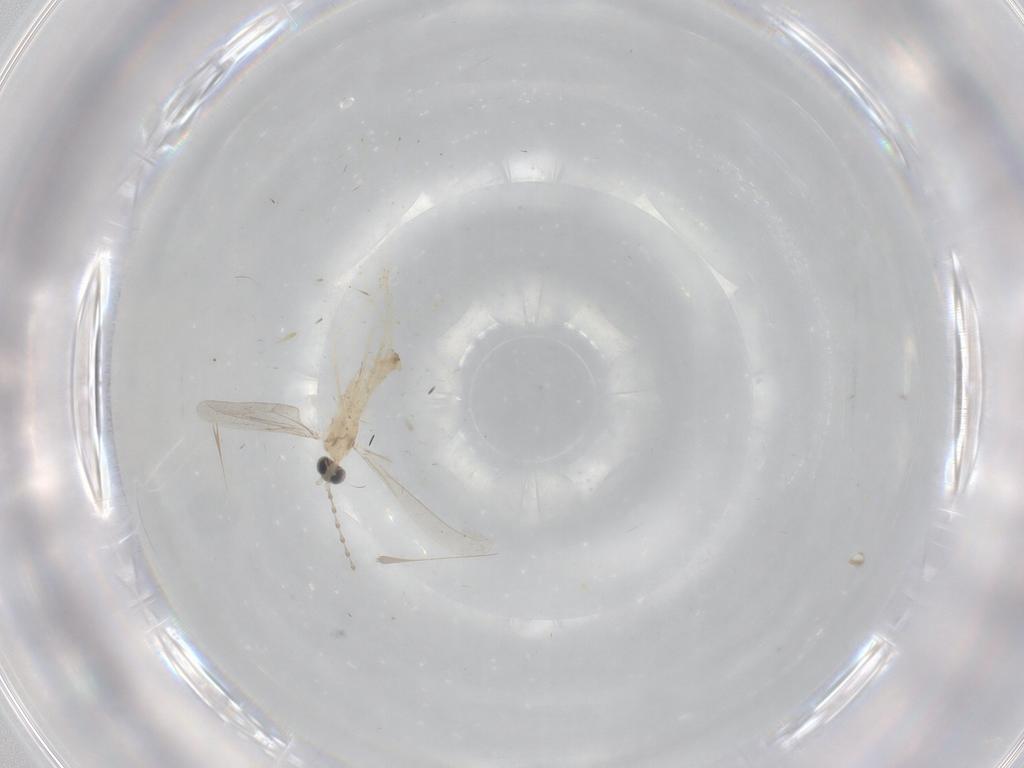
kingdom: Animalia
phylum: Arthropoda
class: Insecta
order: Diptera
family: Cecidomyiidae
